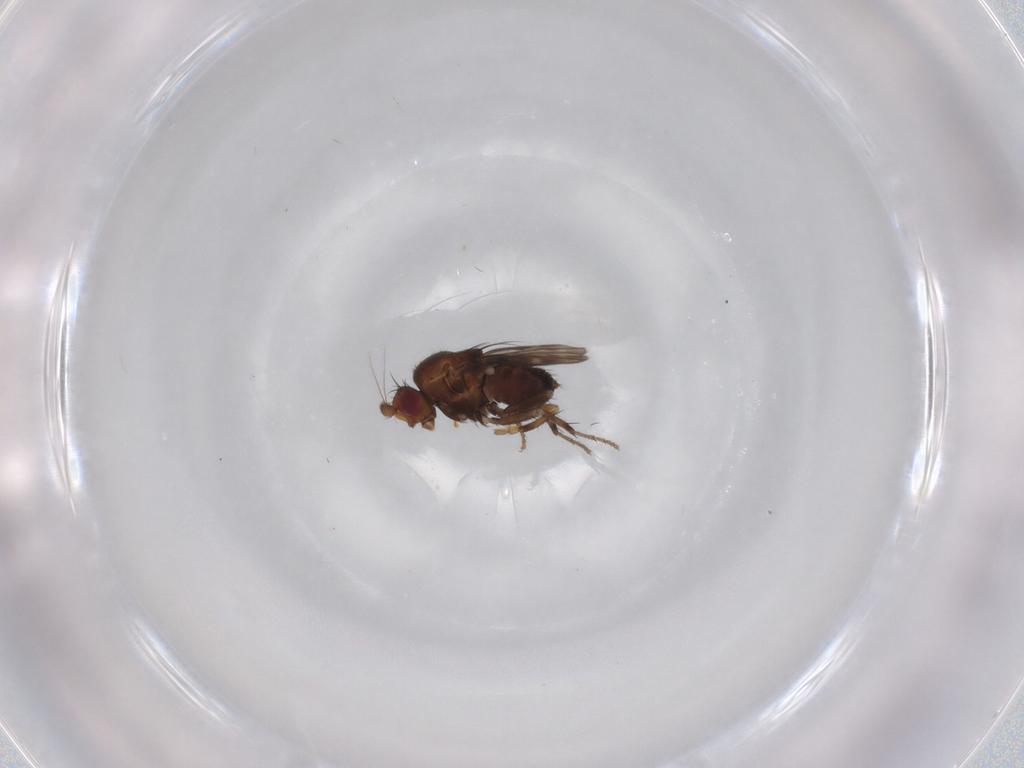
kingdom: Animalia
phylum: Arthropoda
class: Insecta
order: Diptera
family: Sphaeroceridae
